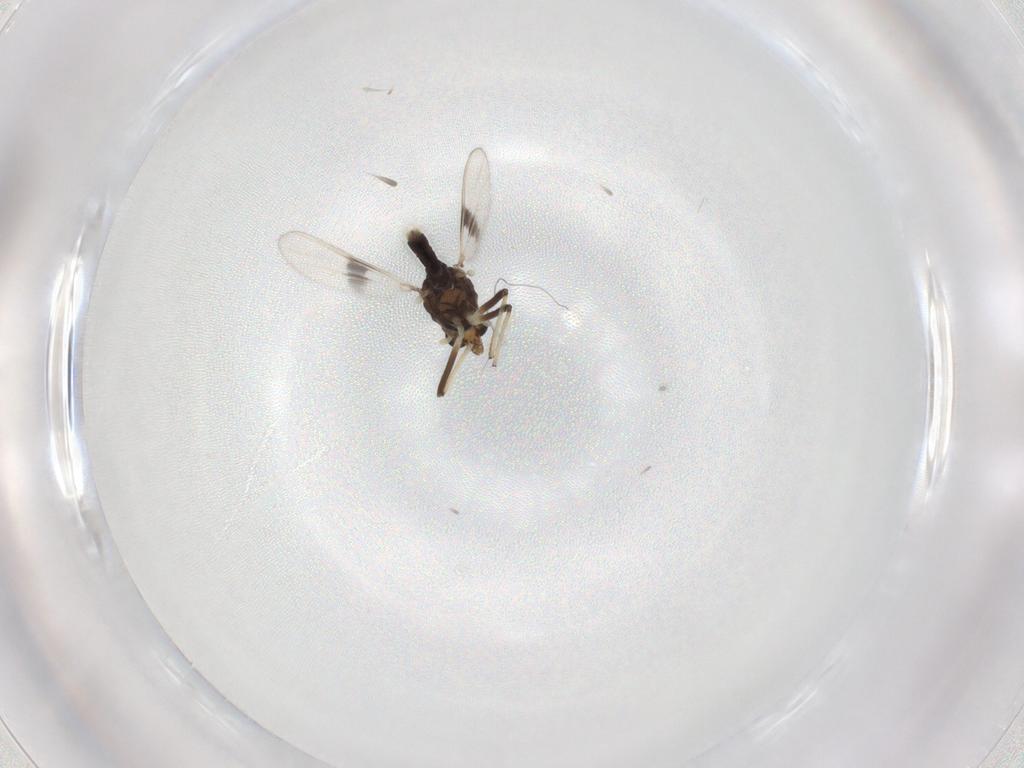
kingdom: Animalia
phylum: Arthropoda
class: Insecta
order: Diptera
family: Chironomidae
